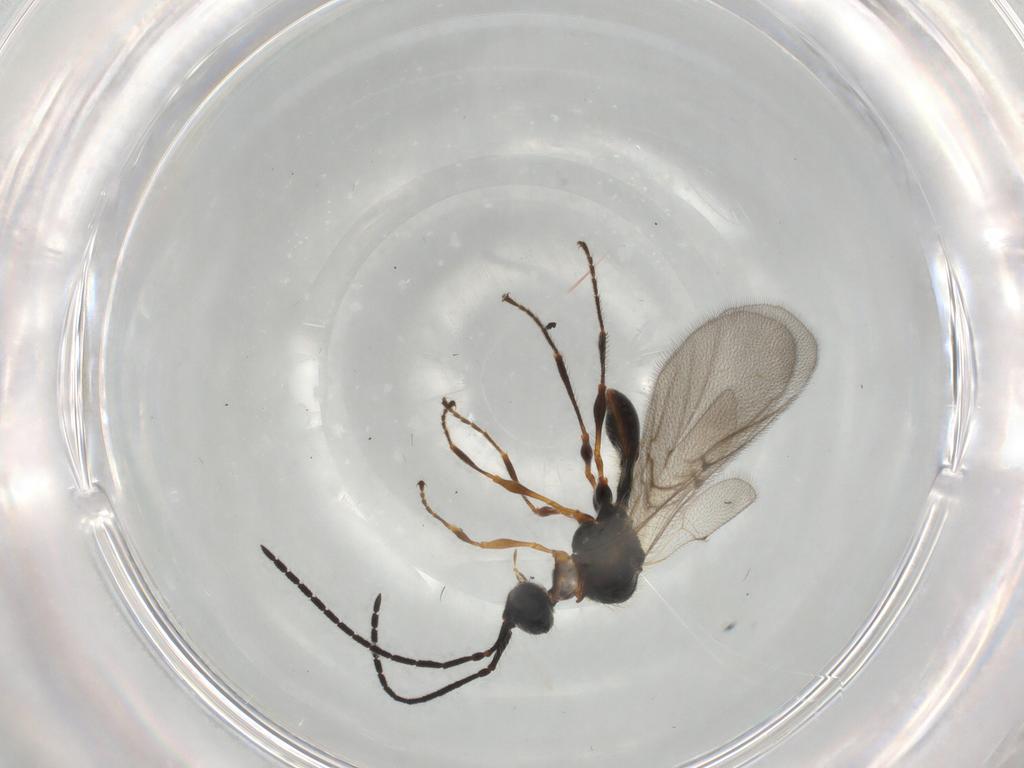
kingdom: Animalia
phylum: Arthropoda
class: Insecta
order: Hymenoptera
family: Diapriidae
